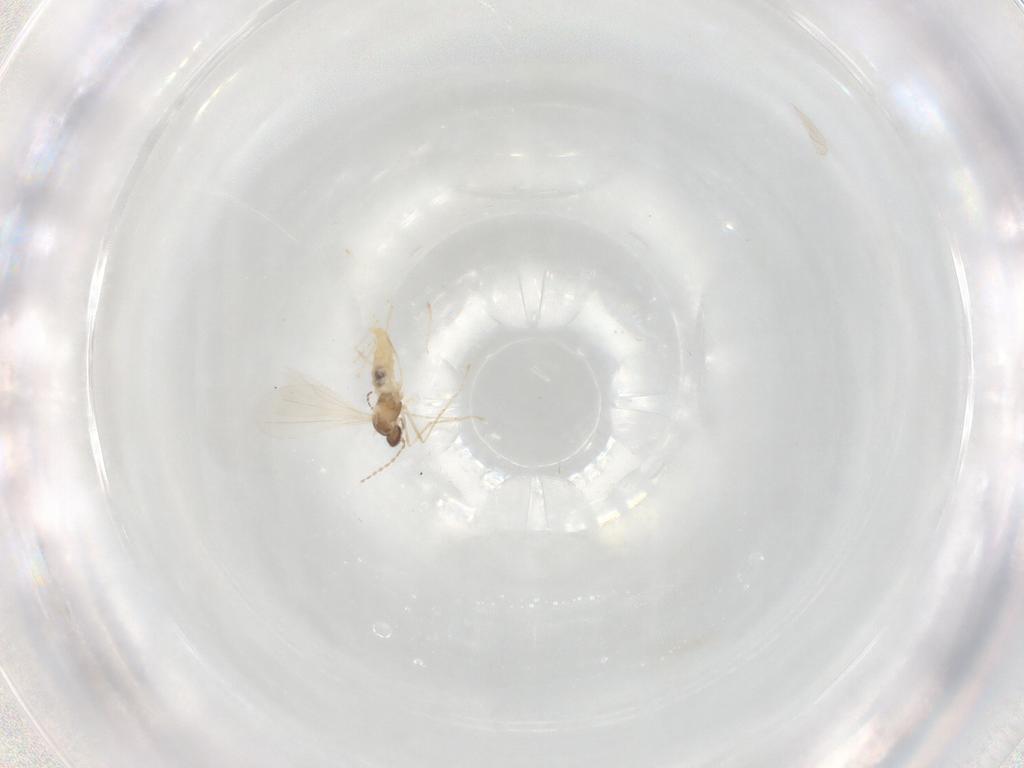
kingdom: Animalia
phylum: Arthropoda
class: Insecta
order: Diptera
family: Cecidomyiidae
